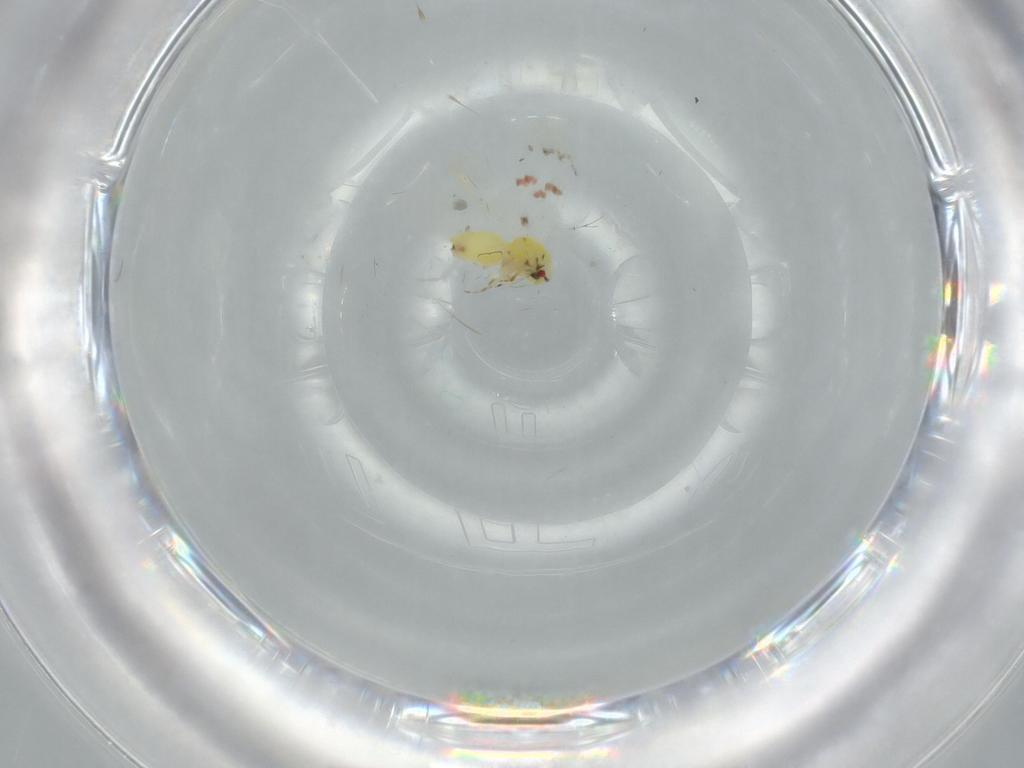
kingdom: Animalia
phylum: Arthropoda
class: Insecta
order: Hemiptera
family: Aleyrodidae
